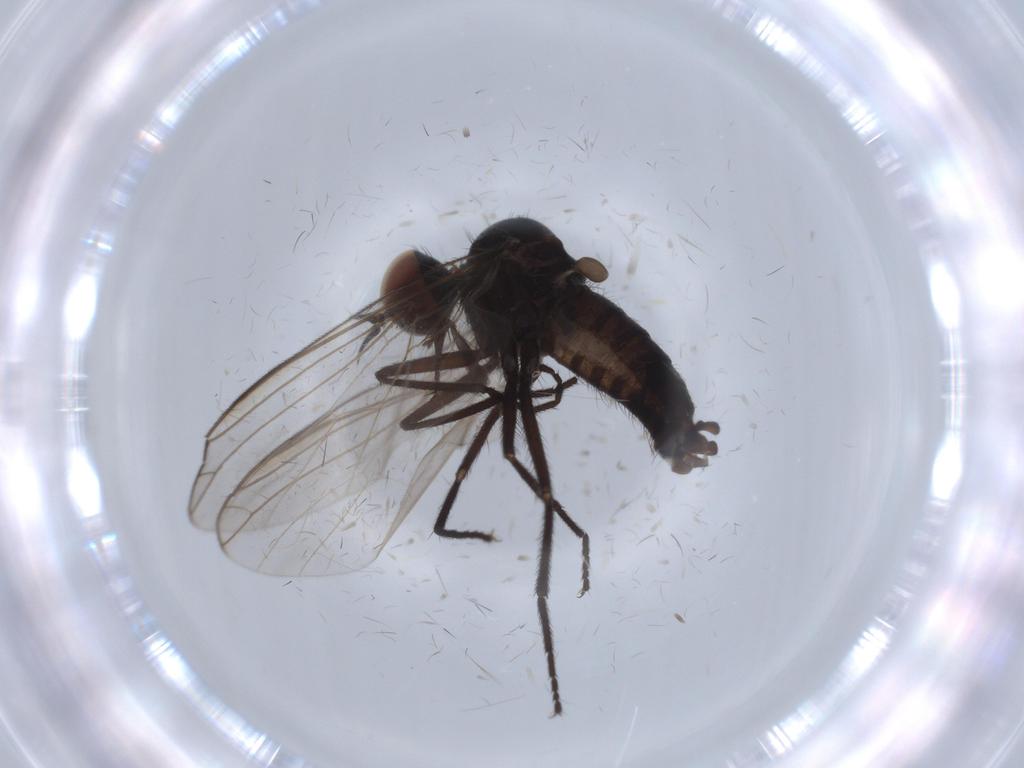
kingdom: Animalia
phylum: Arthropoda
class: Insecta
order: Diptera
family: Empididae
